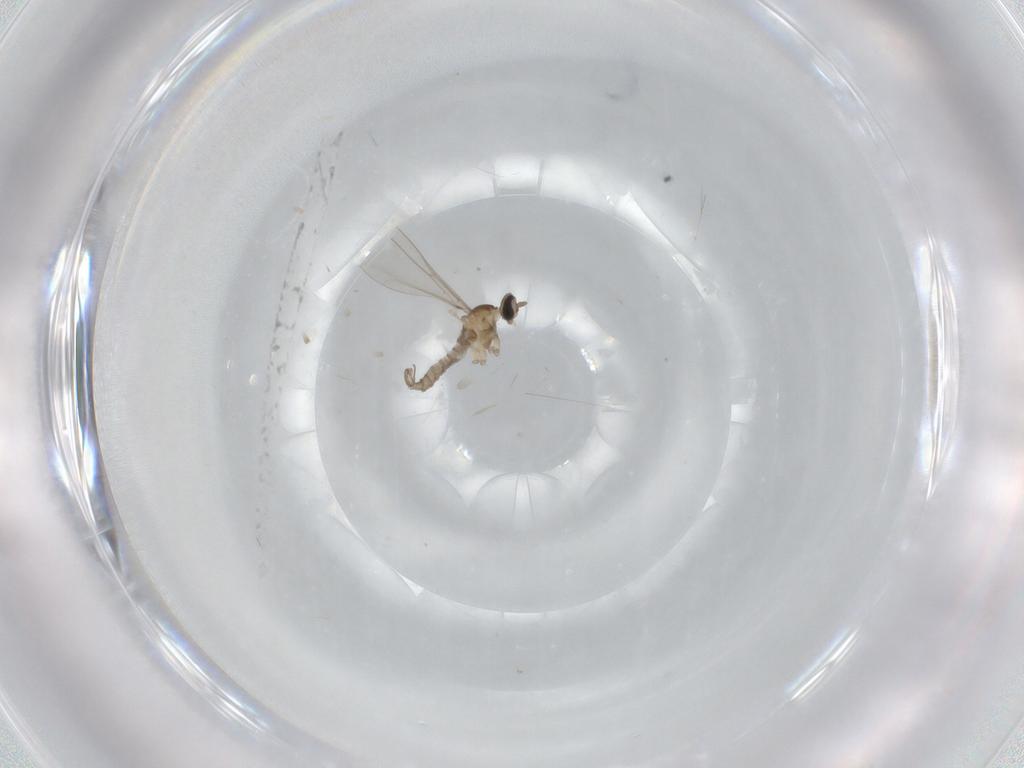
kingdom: Animalia
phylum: Arthropoda
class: Insecta
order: Diptera
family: Cecidomyiidae
